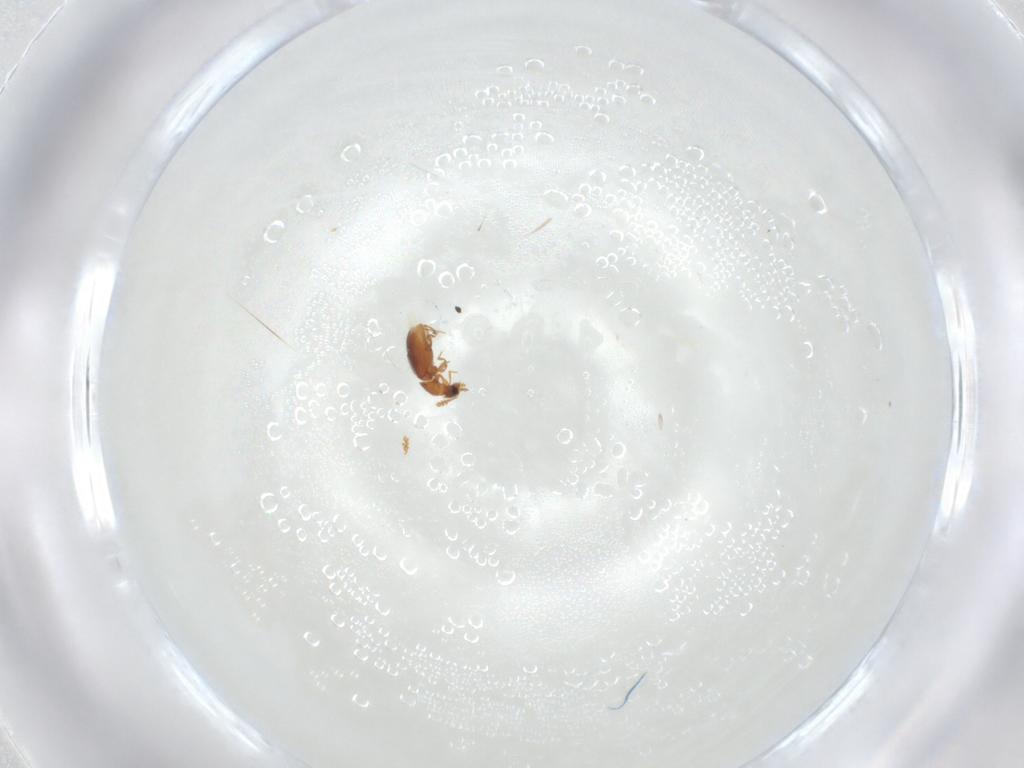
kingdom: Animalia
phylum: Arthropoda
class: Insecta
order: Coleoptera
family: Staphylinidae
